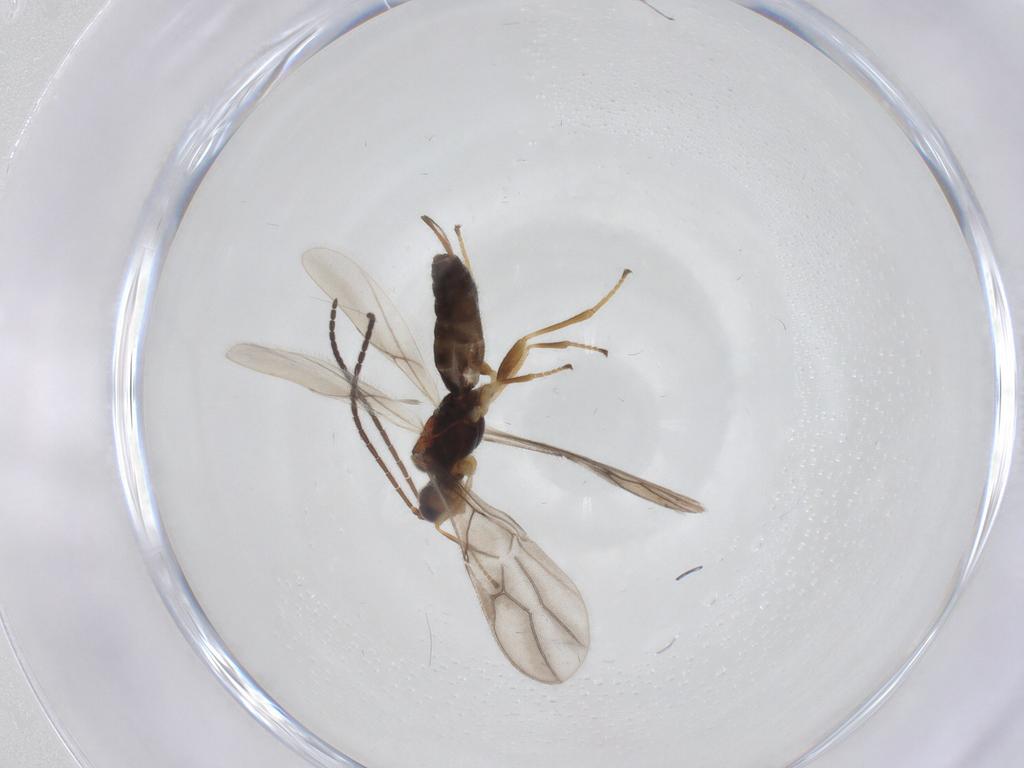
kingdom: Animalia
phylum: Arthropoda
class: Insecta
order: Hymenoptera
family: Braconidae
